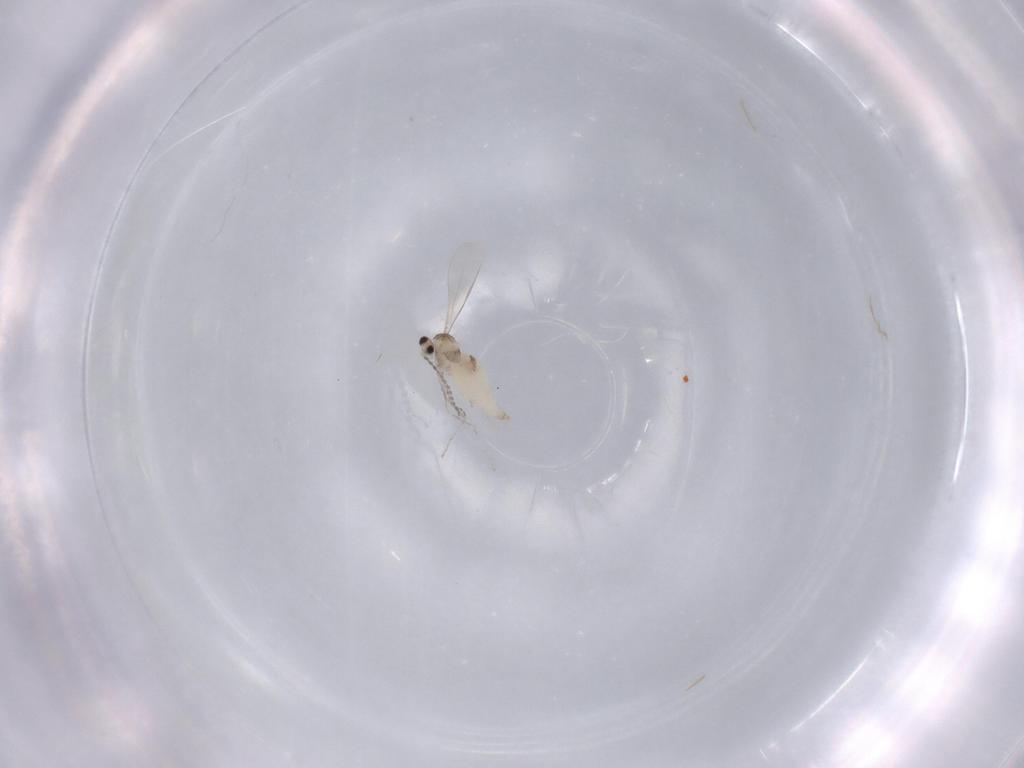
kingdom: Animalia
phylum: Arthropoda
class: Insecta
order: Diptera
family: Cecidomyiidae
